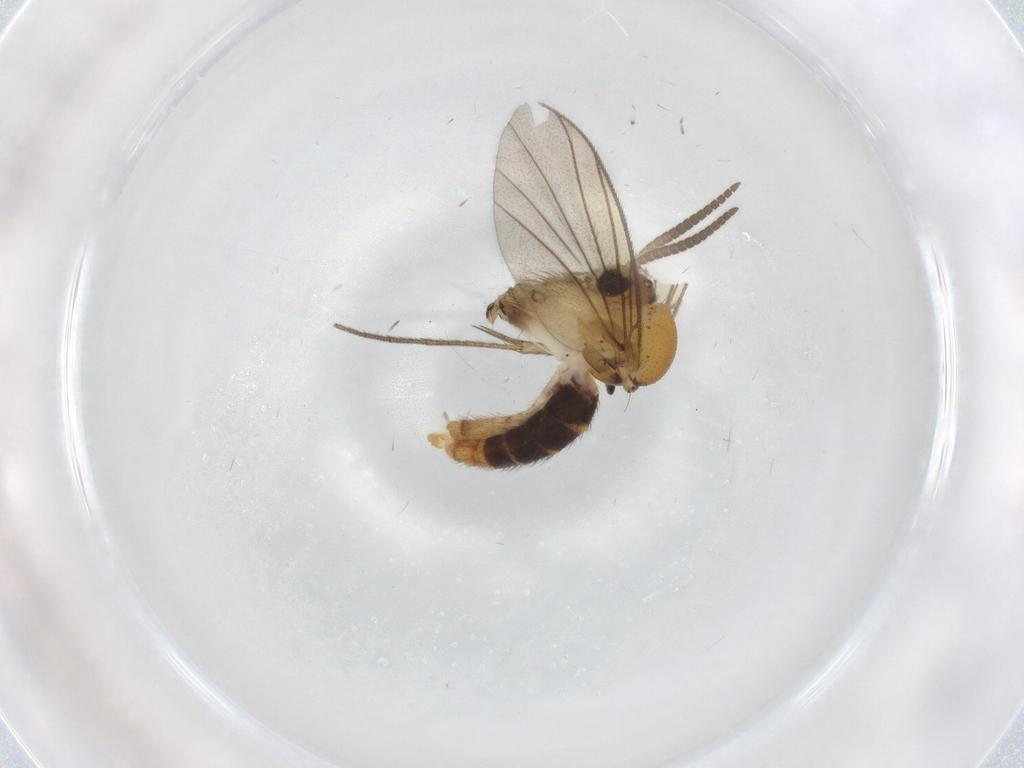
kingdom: Animalia
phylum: Arthropoda
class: Insecta
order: Diptera
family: Mycetophilidae
